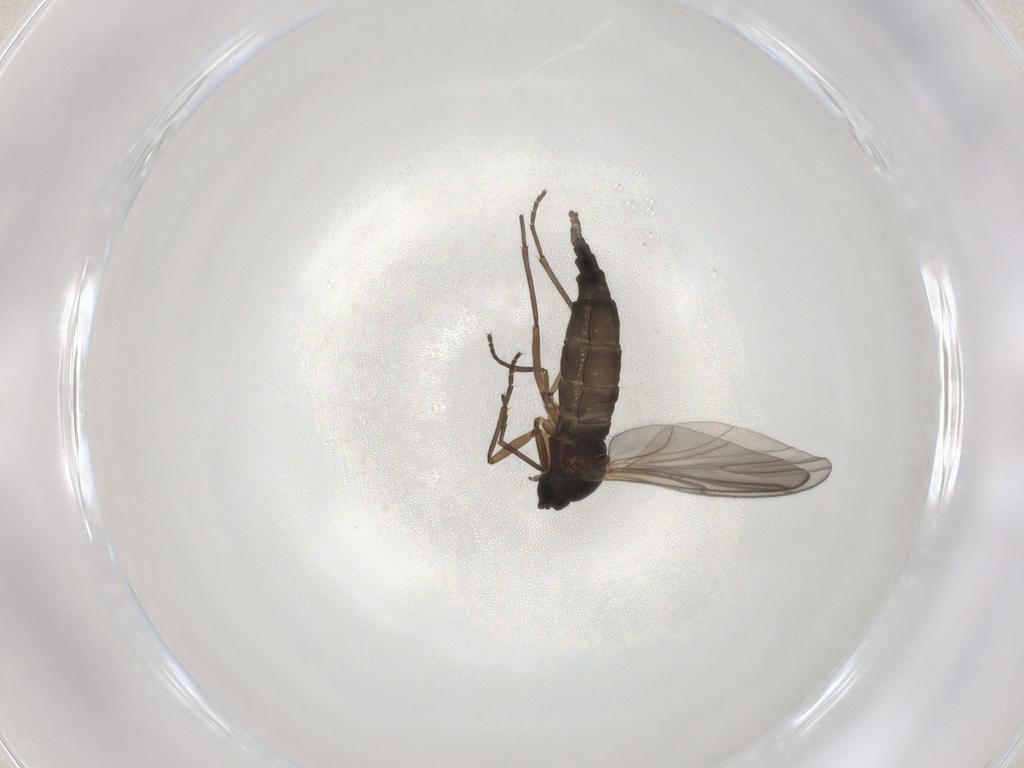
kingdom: Animalia
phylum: Arthropoda
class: Insecta
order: Diptera
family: Sciaridae
